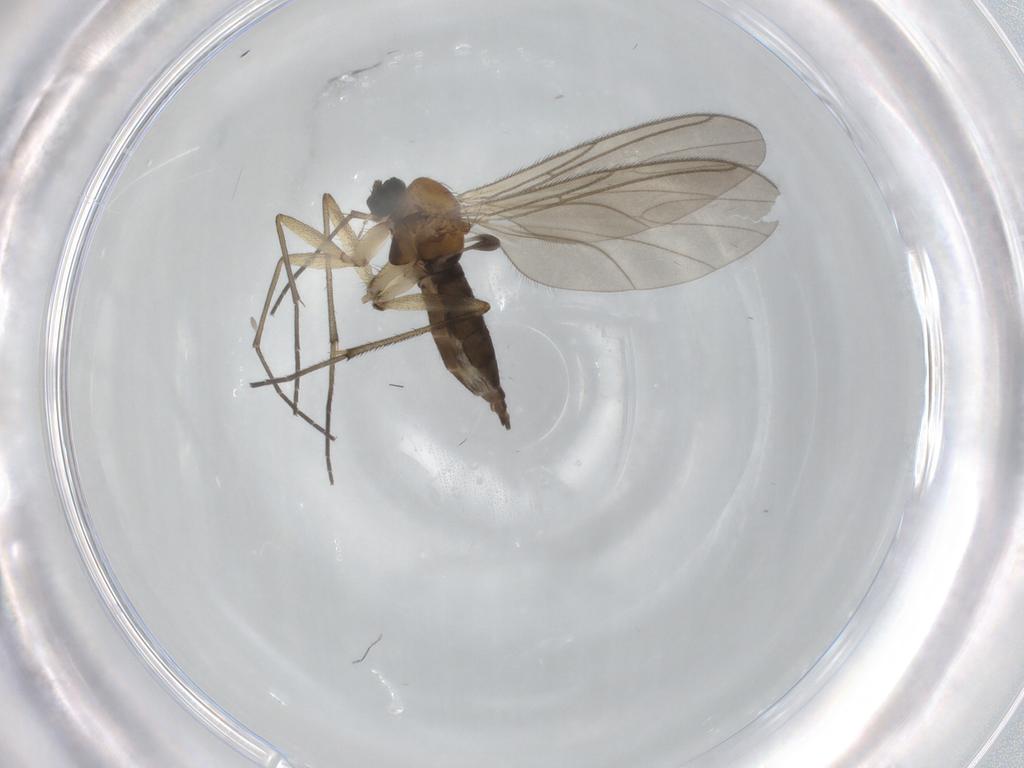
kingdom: Animalia
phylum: Arthropoda
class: Insecta
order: Diptera
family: Sciaridae
